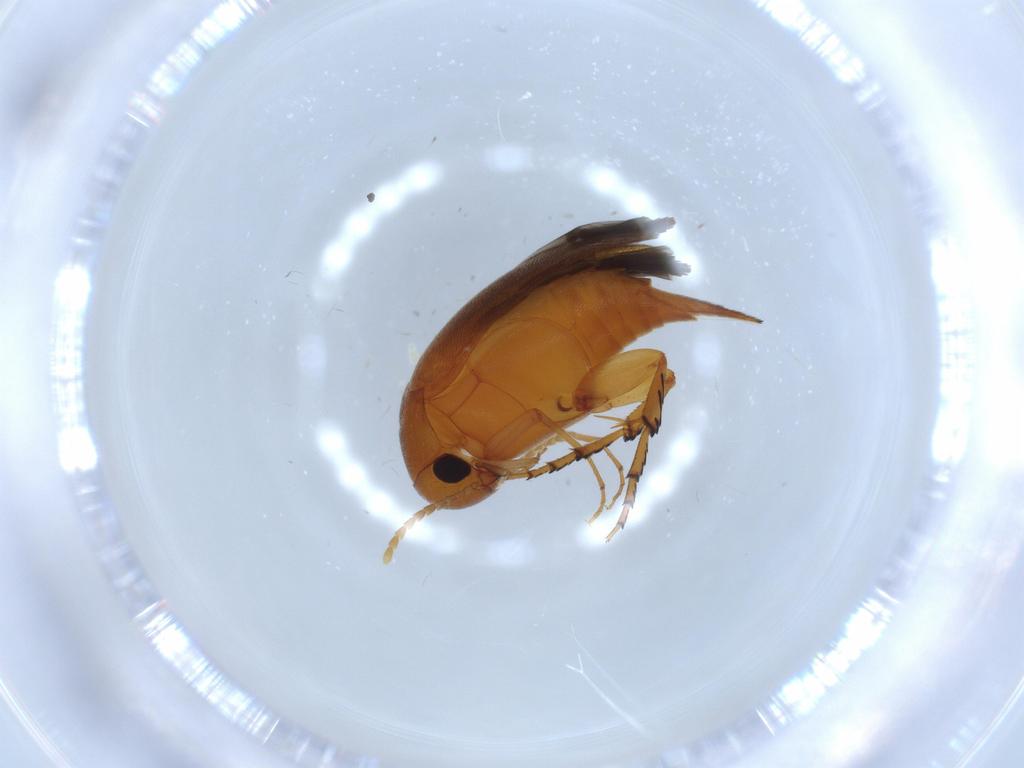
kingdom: Animalia
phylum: Arthropoda
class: Insecta
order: Coleoptera
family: Mordellidae
